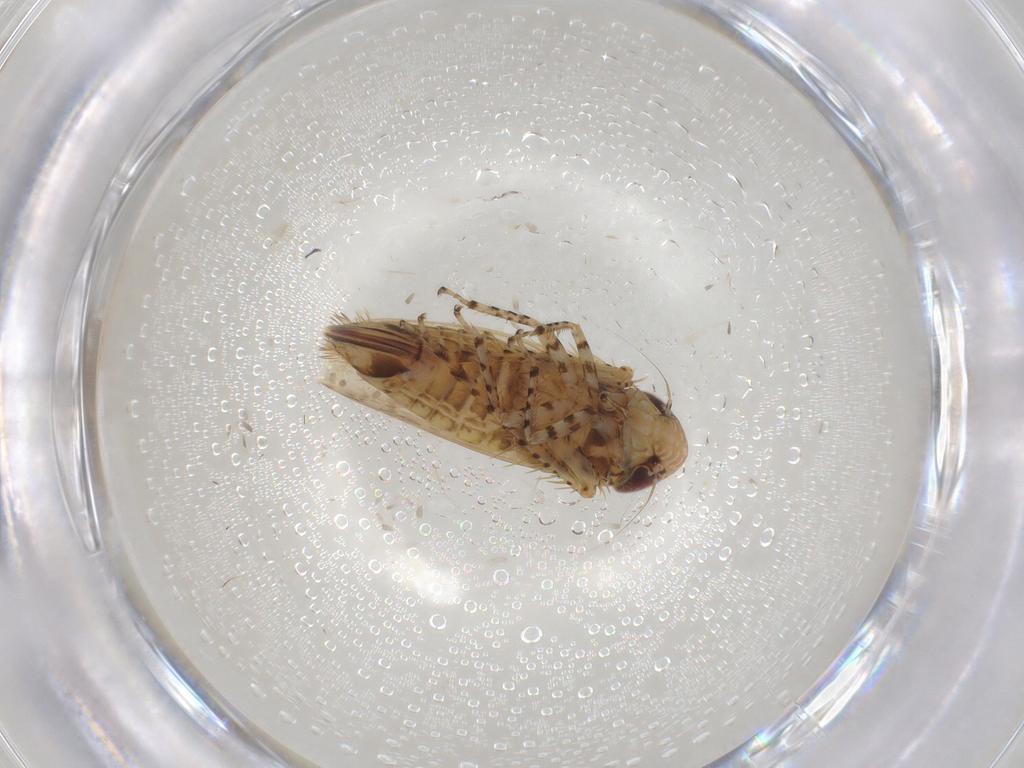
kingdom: Animalia
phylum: Arthropoda
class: Insecta
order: Hemiptera
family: Cicadellidae
